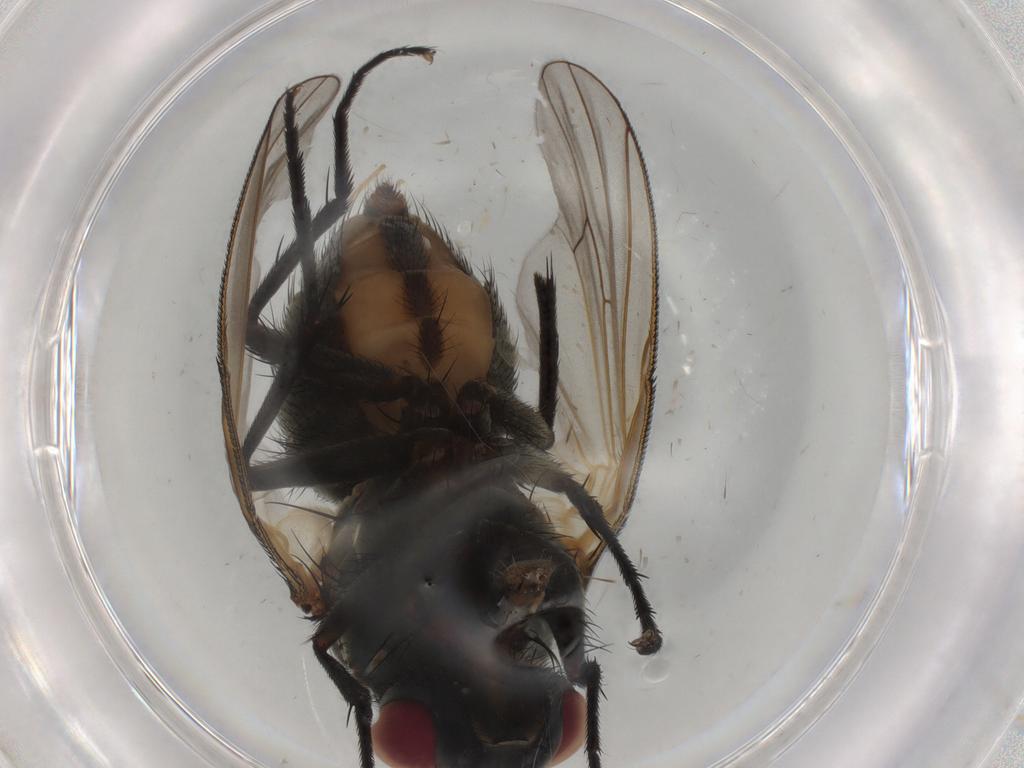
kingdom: Animalia
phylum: Arthropoda
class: Insecta
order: Diptera
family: Muscidae
